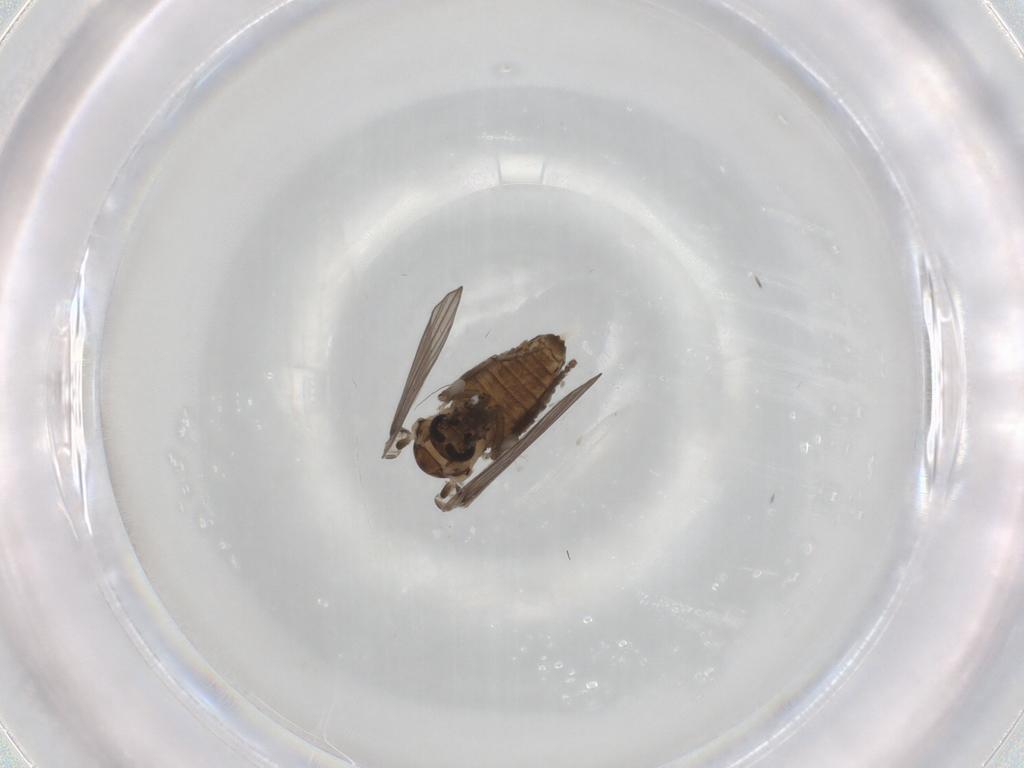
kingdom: Animalia
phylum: Arthropoda
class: Insecta
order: Diptera
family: Psychodidae
